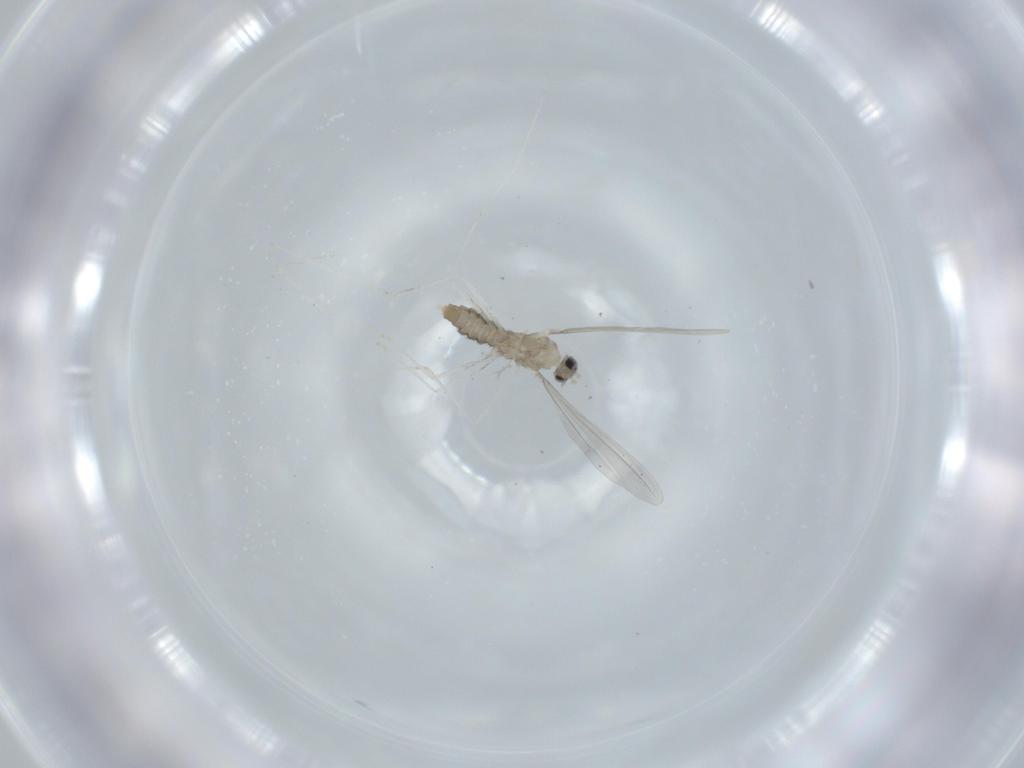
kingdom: Animalia
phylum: Arthropoda
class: Insecta
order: Diptera
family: Cecidomyiidae
